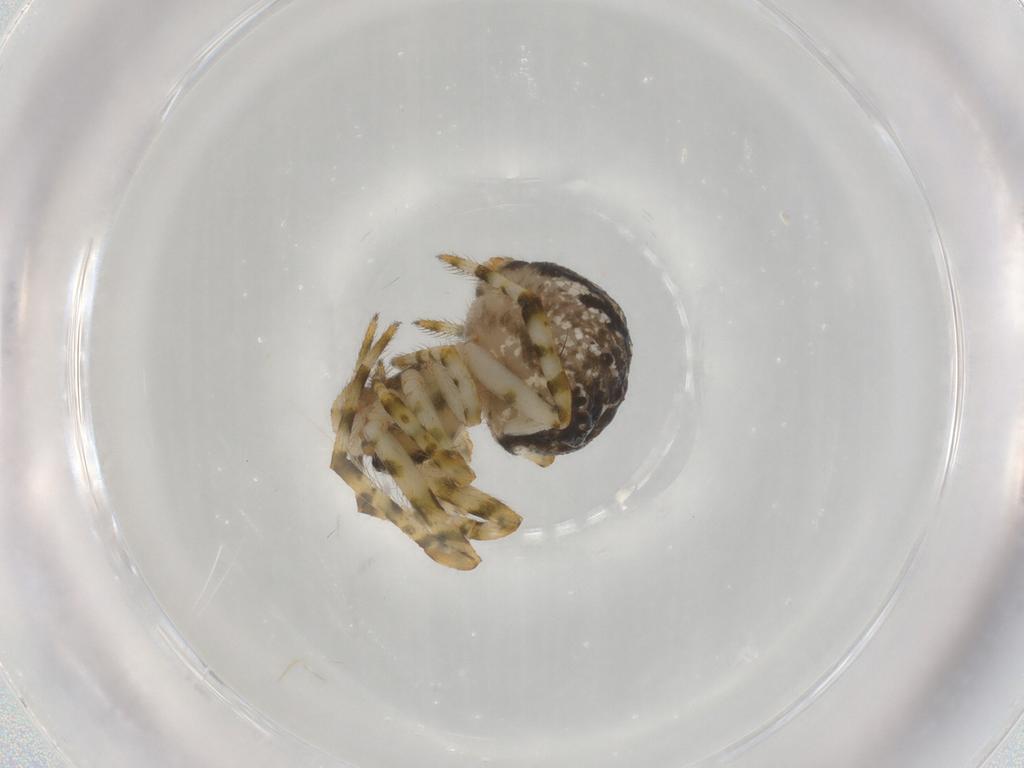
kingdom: Animalia
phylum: Arthropoda
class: Arachnida
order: Araneae
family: Theridiidae
